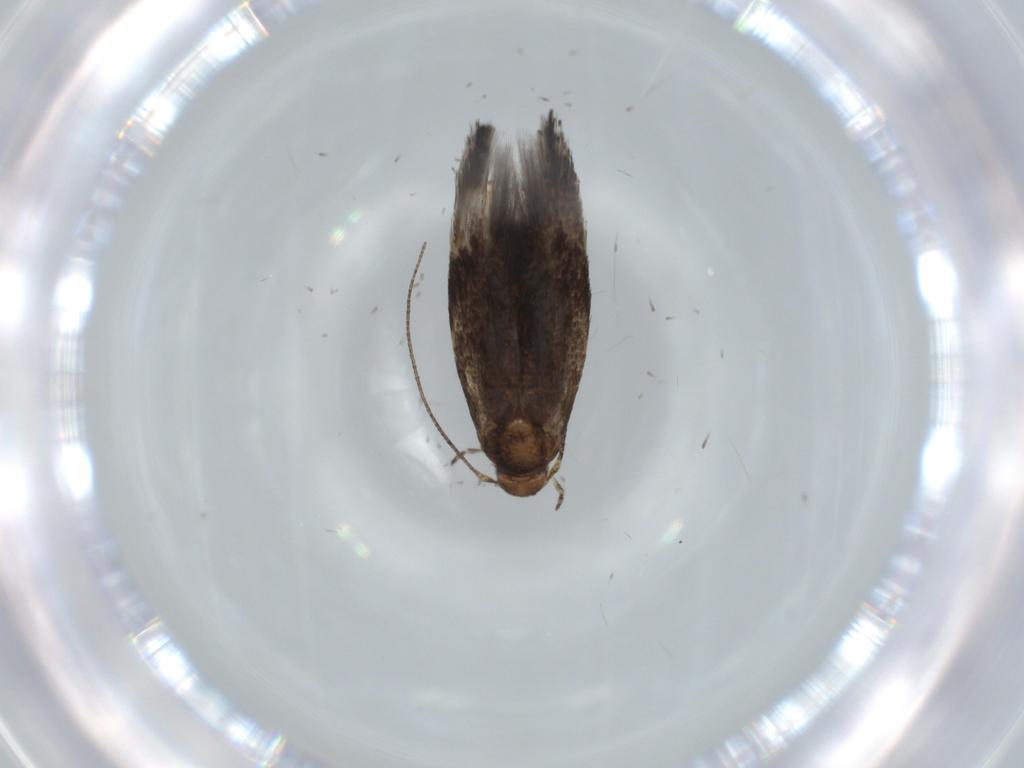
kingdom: Animalia
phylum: Arthropoda
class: Insecta
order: Lepidoptera
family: Gelechiidae
